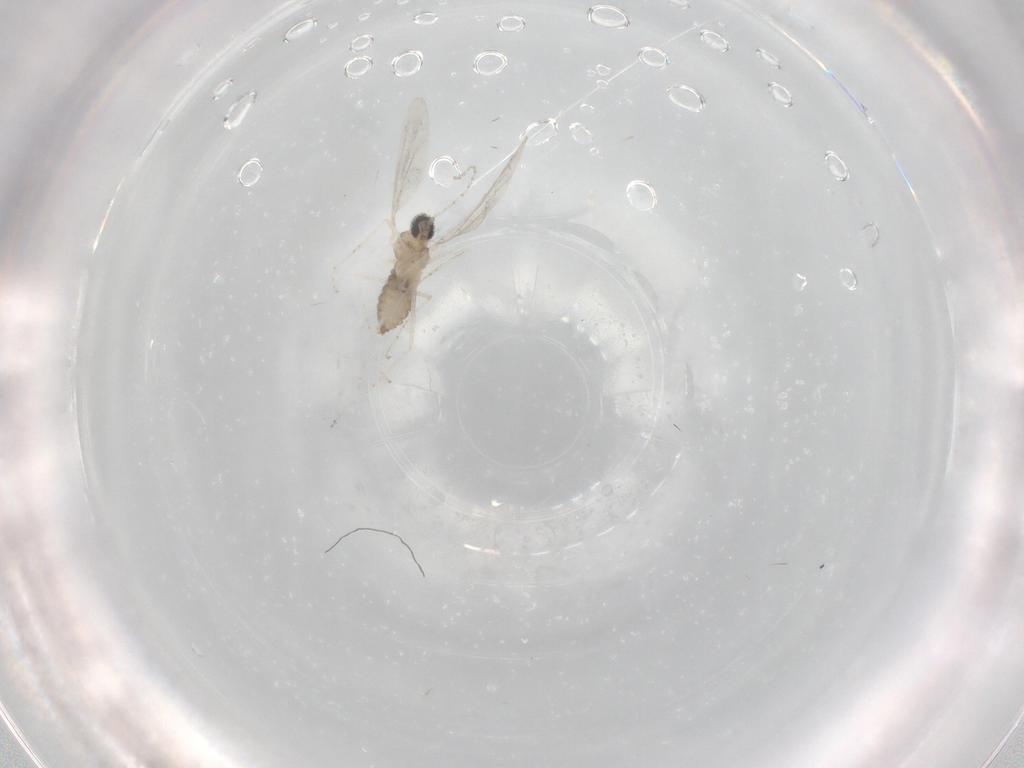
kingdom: Animalia
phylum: Arthropoda
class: Insecta
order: Diptera
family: Cecidomyiidae
